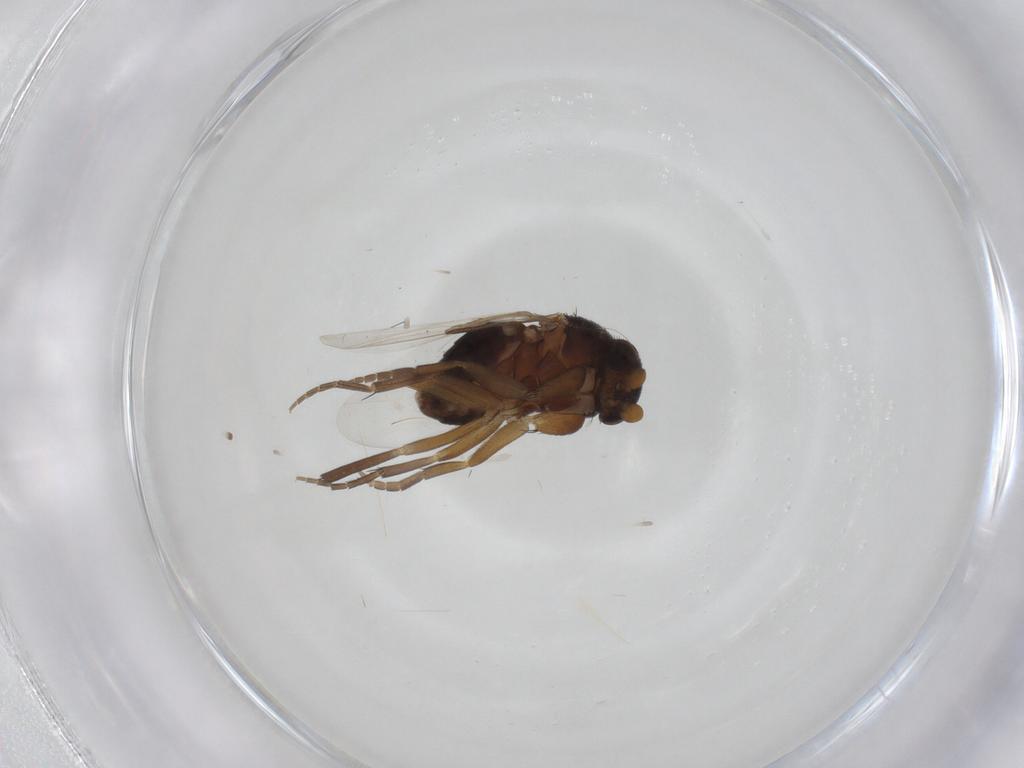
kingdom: Animalia
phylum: Arthropoda
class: Insecta
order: Diptera
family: Phoridae
